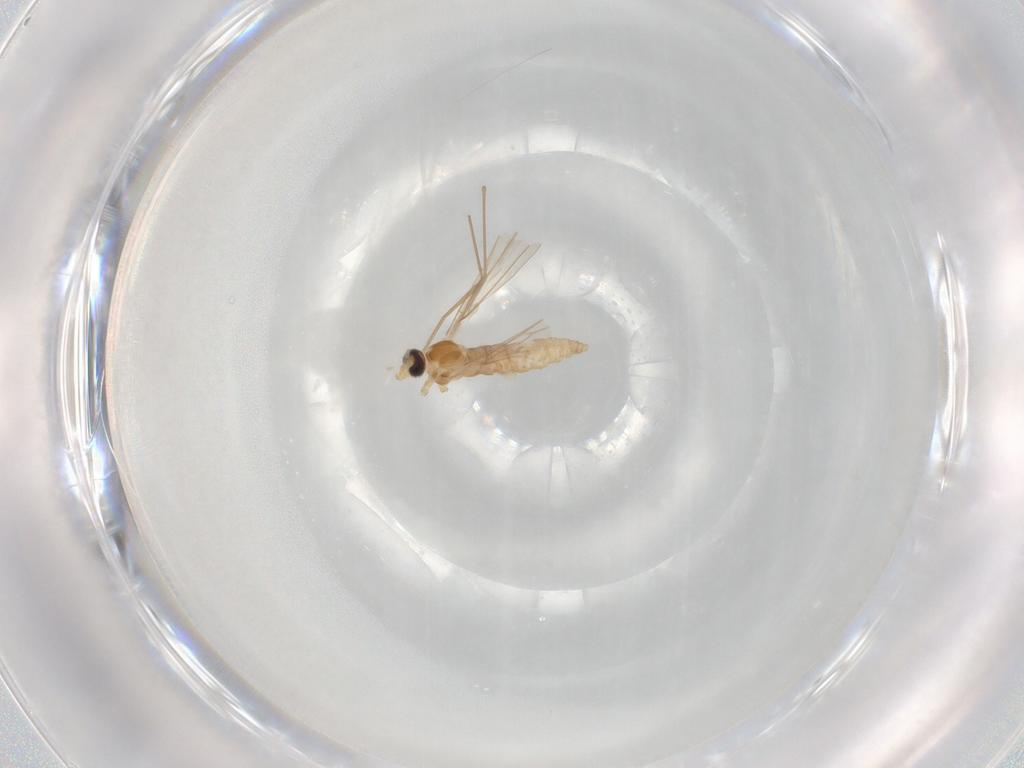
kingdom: Animalia
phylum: Arthropoda
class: Insecta
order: Diptera
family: Cecidomyiidae
